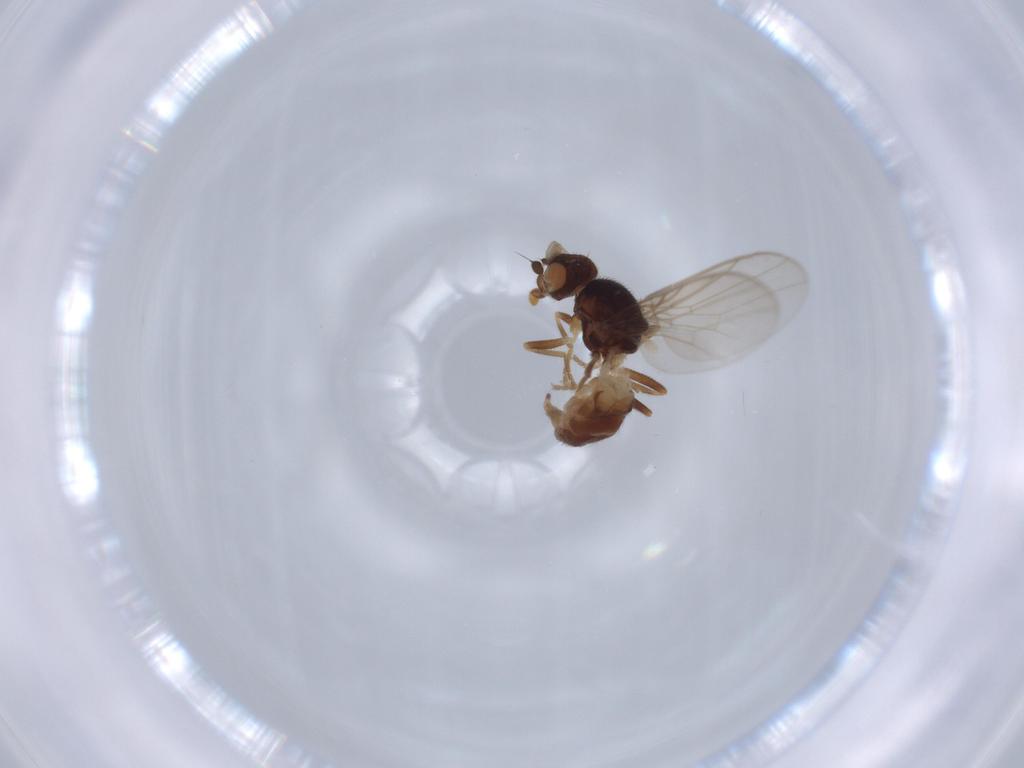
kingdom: Animalia
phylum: Arthropoda
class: Insecta
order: Diptera
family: Chloropidae
